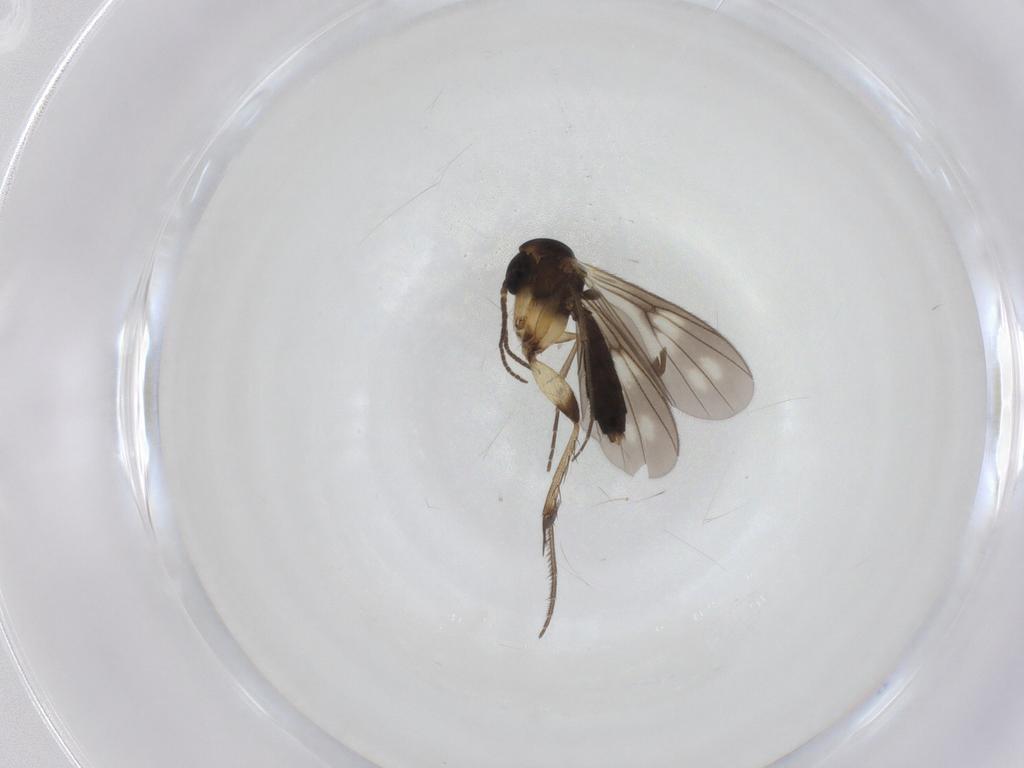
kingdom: Animalia
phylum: Arthropoda
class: Insecta
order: Diptera
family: Mycetophilidae
